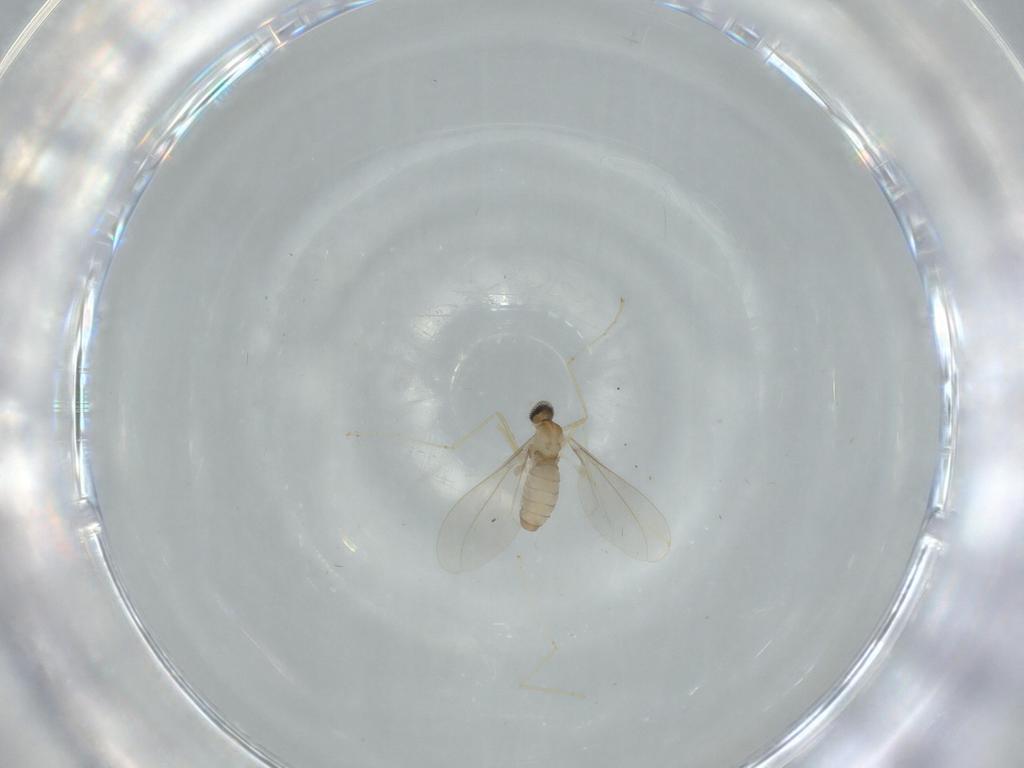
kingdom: Animalia
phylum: Arthropoda
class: Insecta
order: Diptera
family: Cecidomyiidae
